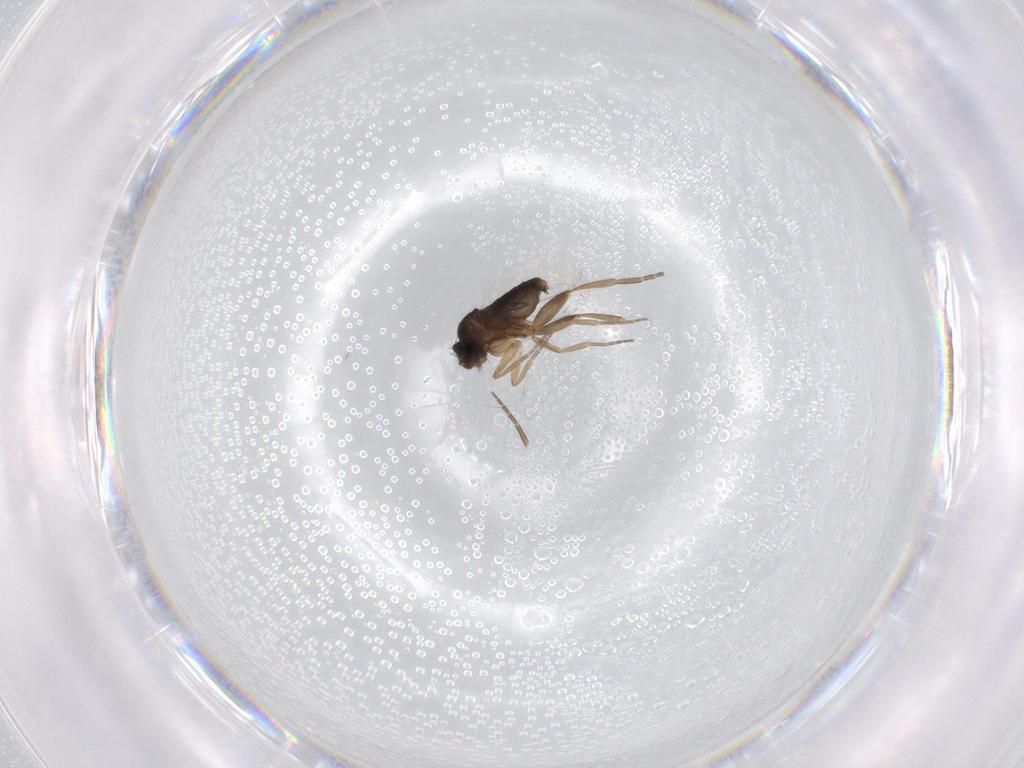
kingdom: Animalia
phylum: Arthropoda
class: Insecta
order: Diptera
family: Phoridae
